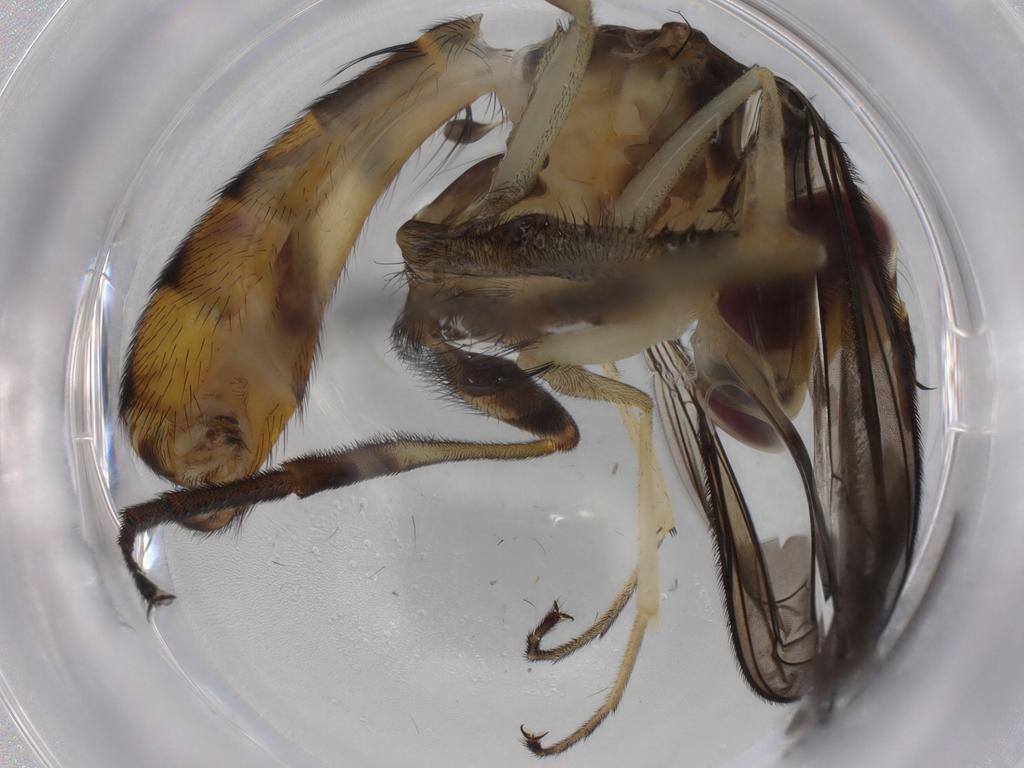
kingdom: Animalia
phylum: Arthropoda
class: Insecta
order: Diptera
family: Conopidae
